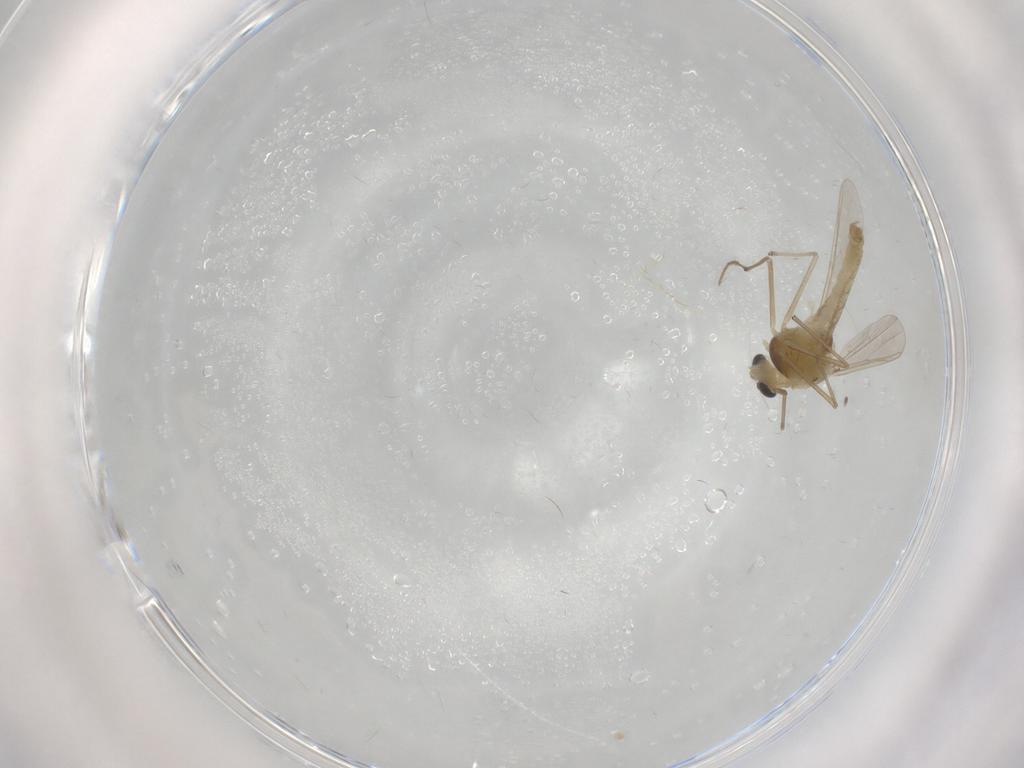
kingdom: Animalia
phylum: Arthropoda
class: Insecta
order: Diptera
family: Chironomidae
